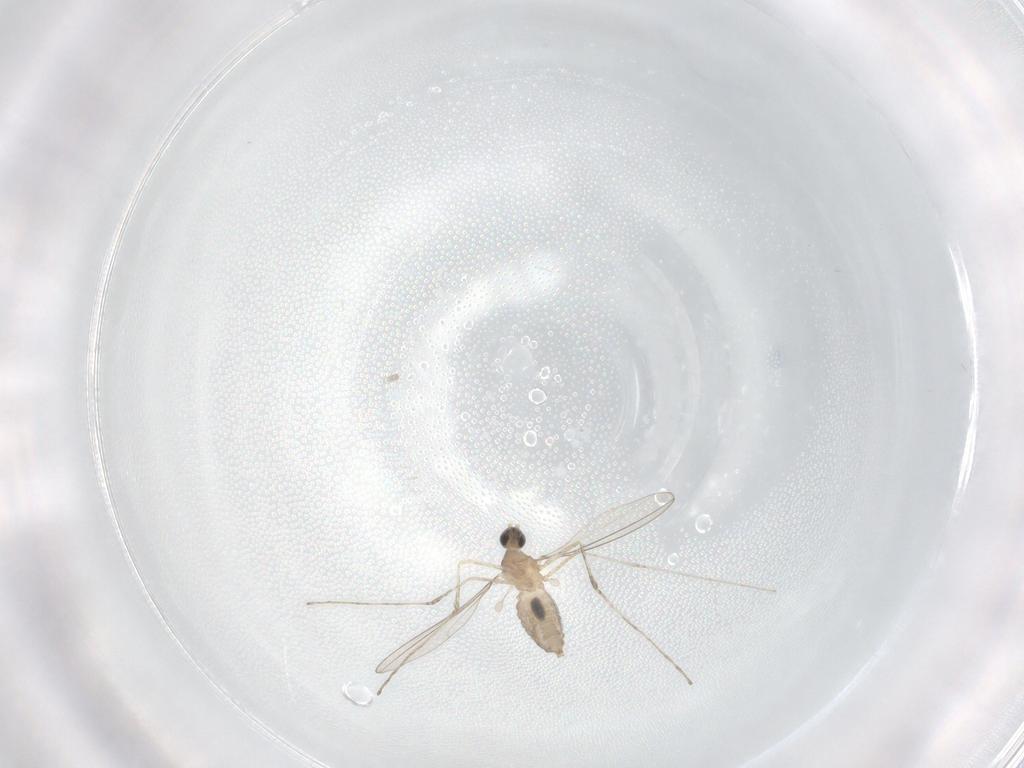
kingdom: Animalia
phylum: Arthropoda
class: Insecta
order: Diptera
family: Cecidomyiidae
